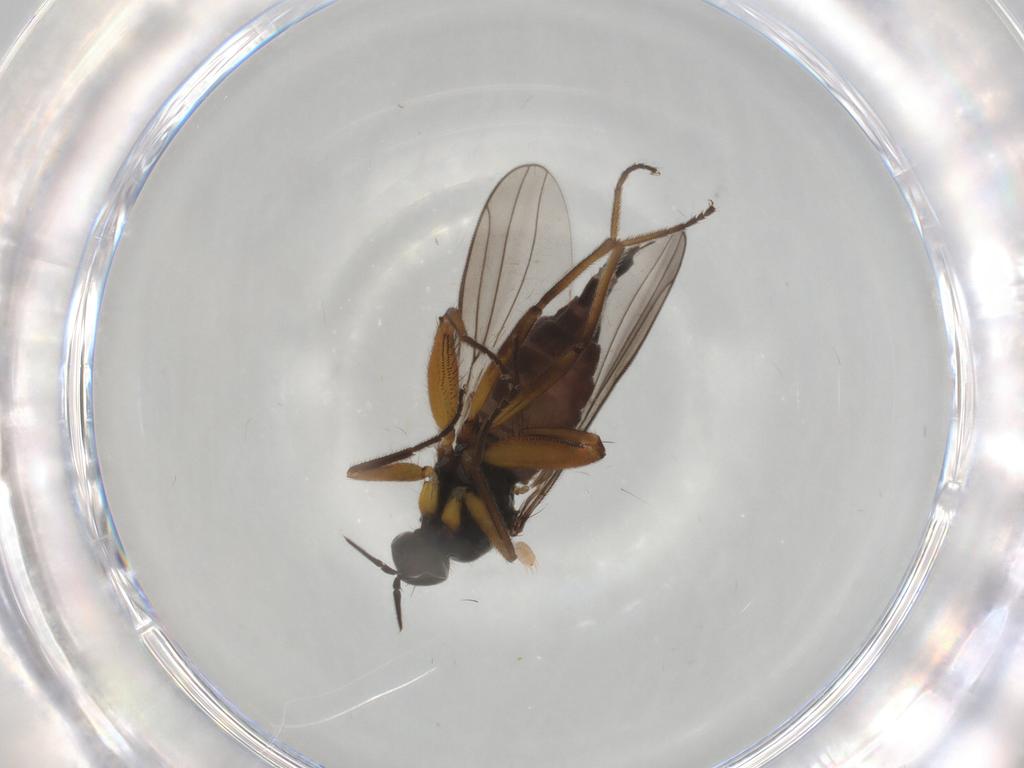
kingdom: Animalia
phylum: Arthropoda
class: Insecta
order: Diptera
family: Hybotidae
